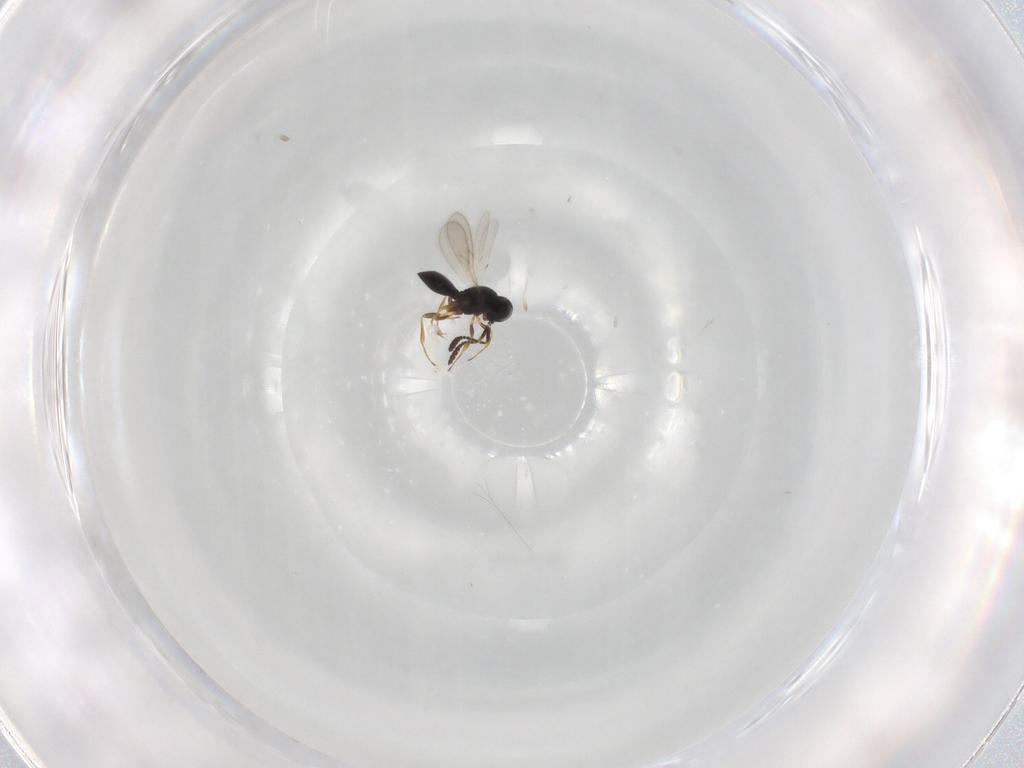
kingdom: Animalia
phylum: Arthropoda
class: Insecta
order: Hymenoptera
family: Scelionidae
